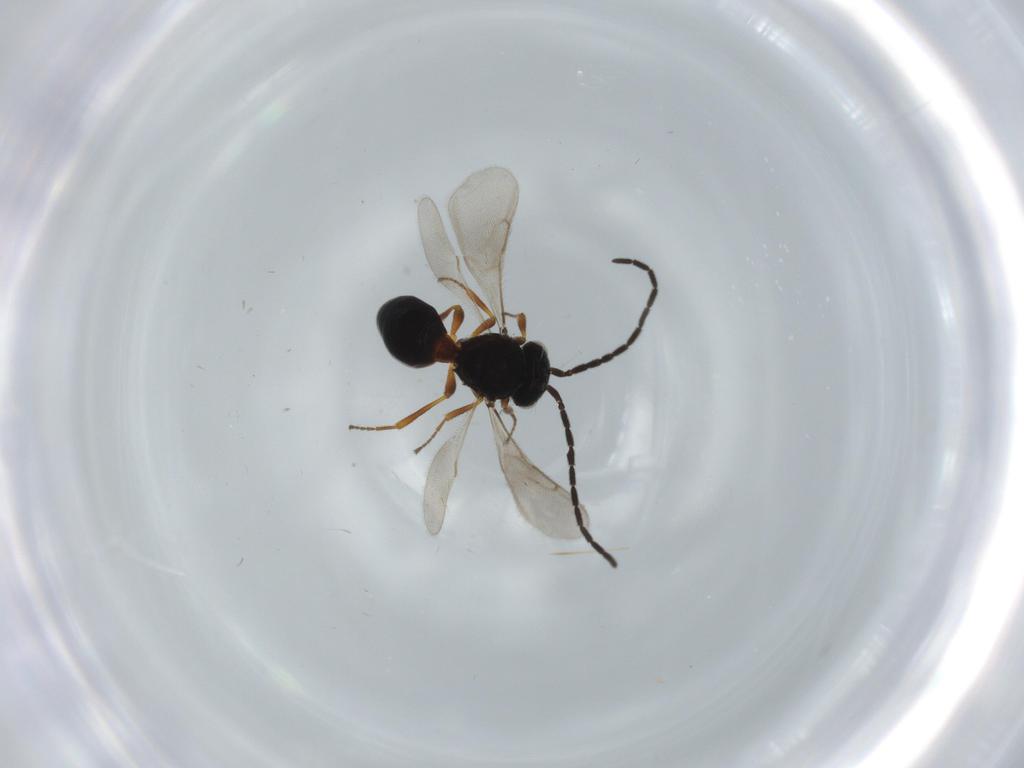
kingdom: Animalia
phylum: Arthropoda
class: Insecta
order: Hymenoptera
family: Scelionidae
